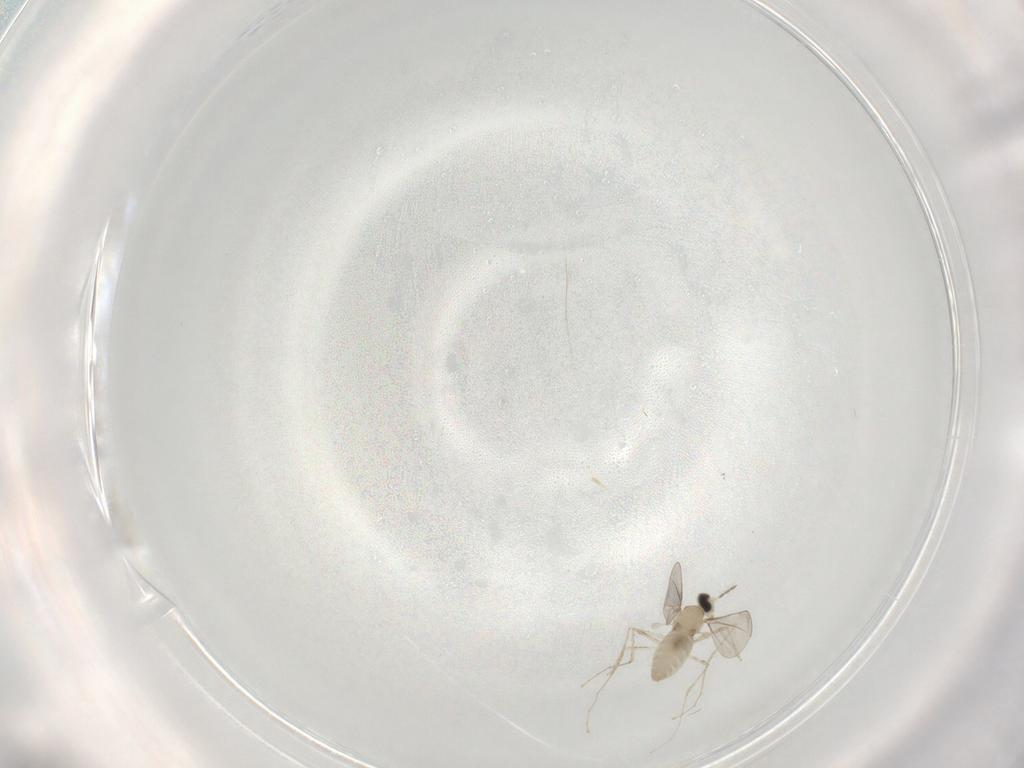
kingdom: Animalia
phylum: Arthropoda
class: Insecta
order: Diptera
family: Cecidomyiidae
